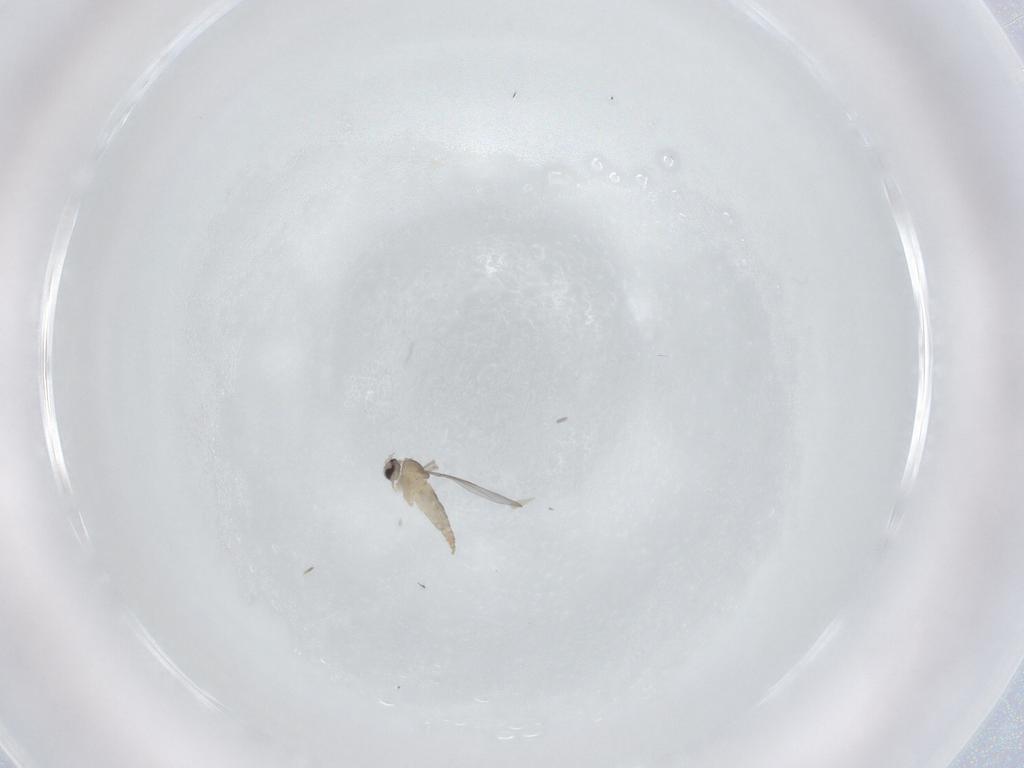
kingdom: Animalia
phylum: Arthropoda
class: Insecta
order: Diptera
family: Cecidomyiidae
